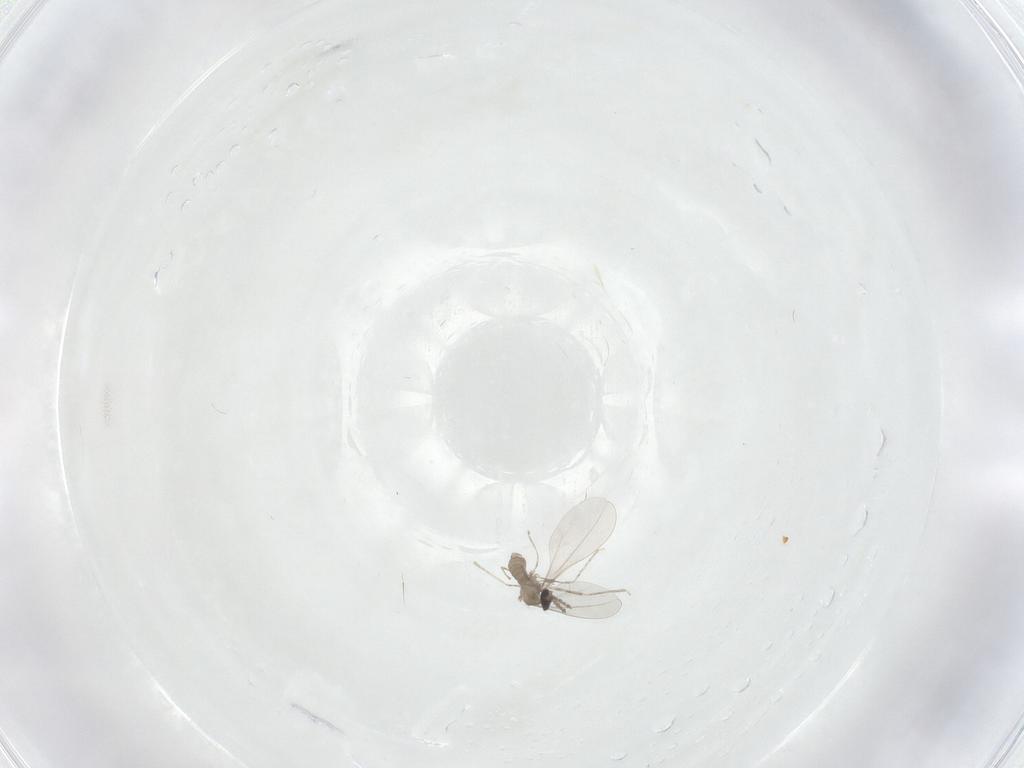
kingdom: Animalia
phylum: Arthropoda
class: Insecta
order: Diptera
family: Cecidomyiidae
